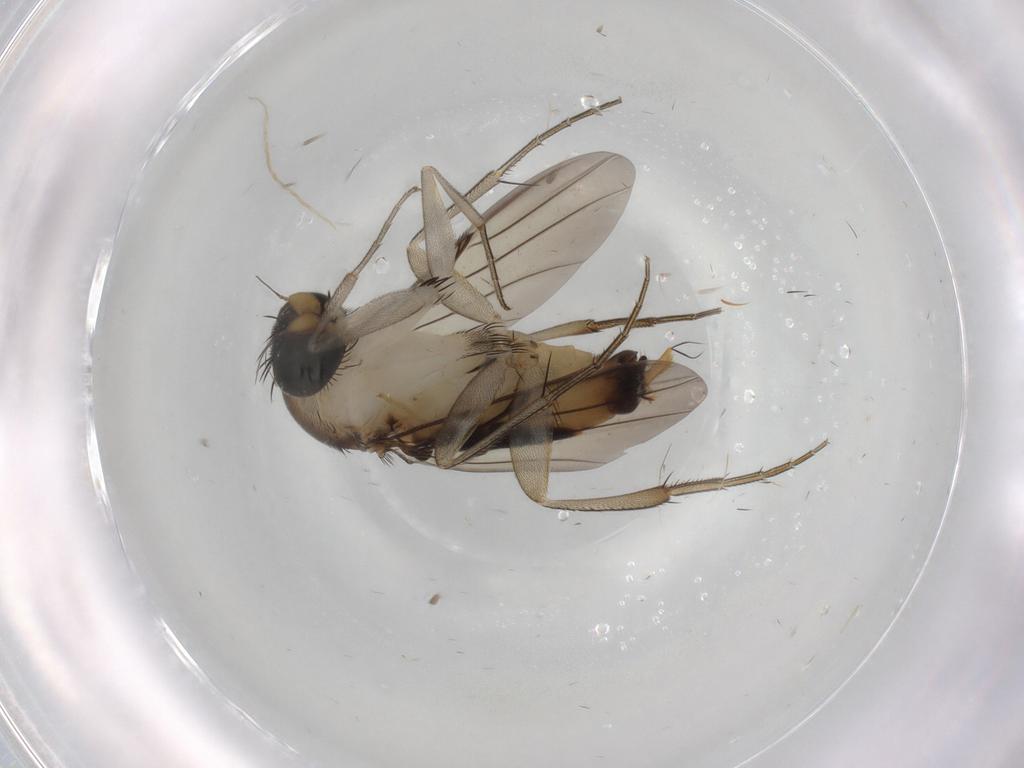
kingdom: Animalia
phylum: Arthropoda
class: Insecta
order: Diptera
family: Phoridae
